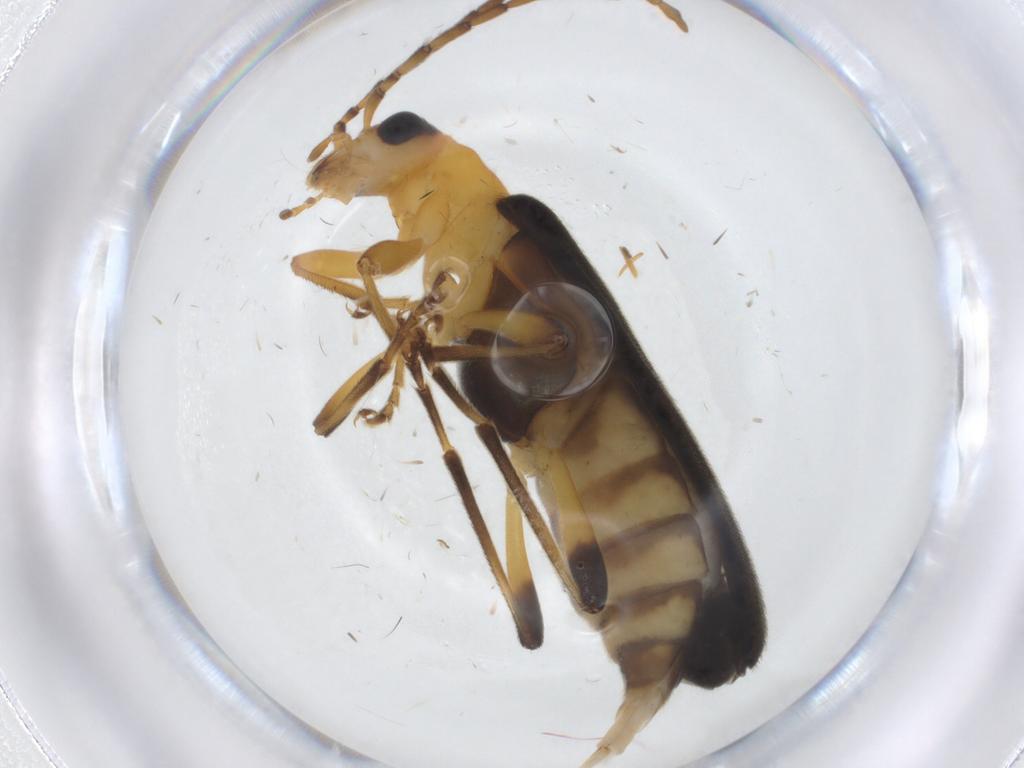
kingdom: Animalia
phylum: Arthropoda
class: Insecta
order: Coleoptera
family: Oedemeridae
